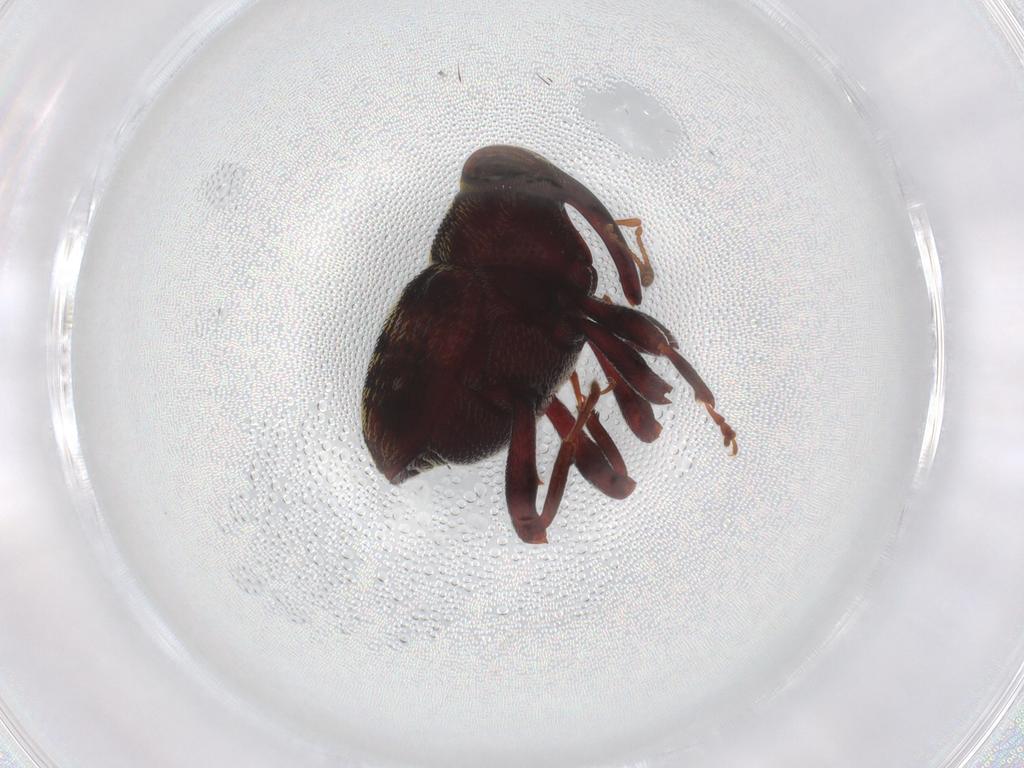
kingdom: Animalia
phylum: Arthropoda
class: Insecta
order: Coleoptera
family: Curculionidae
